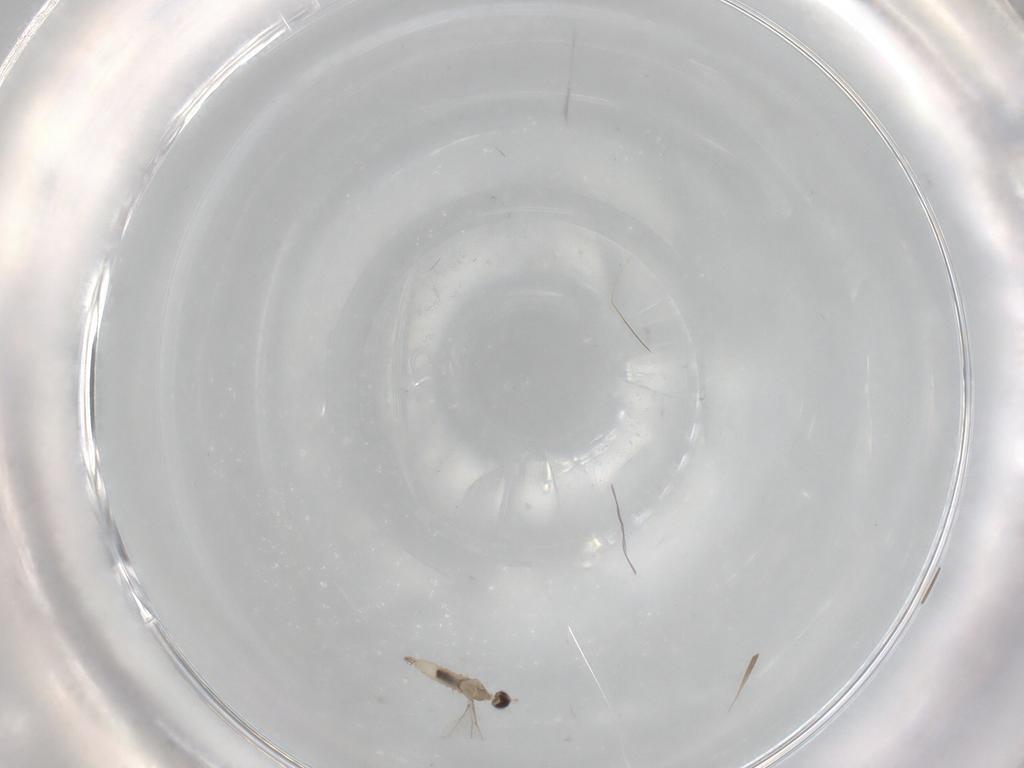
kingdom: Animalia
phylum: Arthropoda
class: Insecta
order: Diptera
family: Cecidomyiidae
